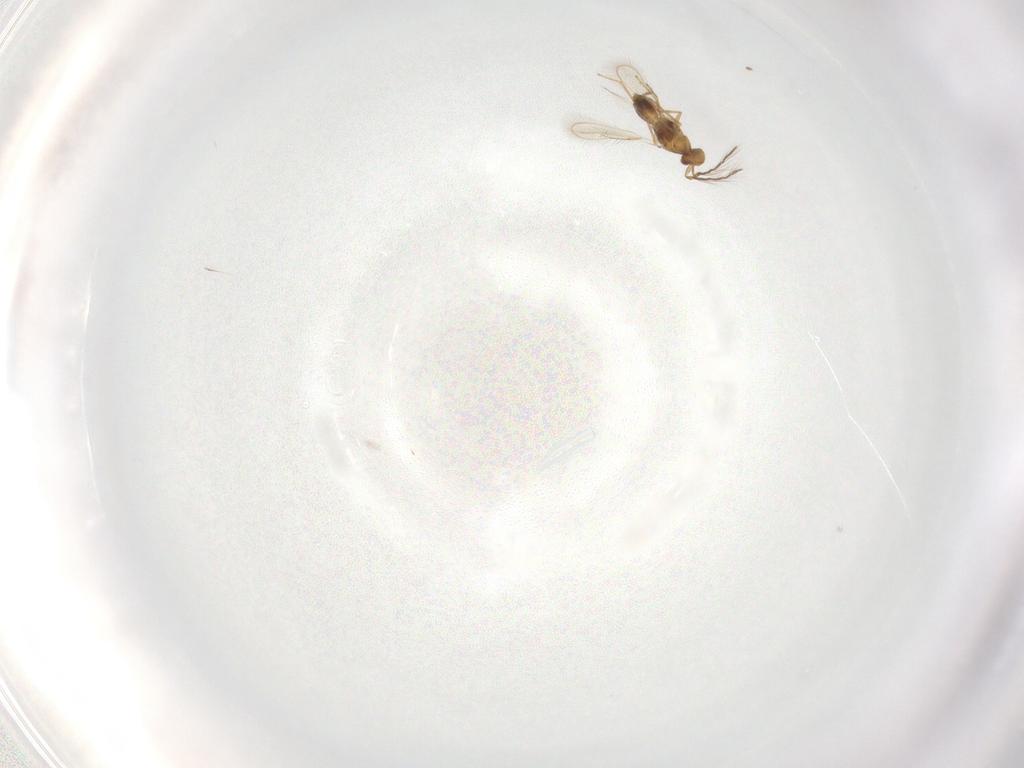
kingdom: Animalia
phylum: Arthropoda
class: Insecta
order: Hymenoptera
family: Eulophidae
